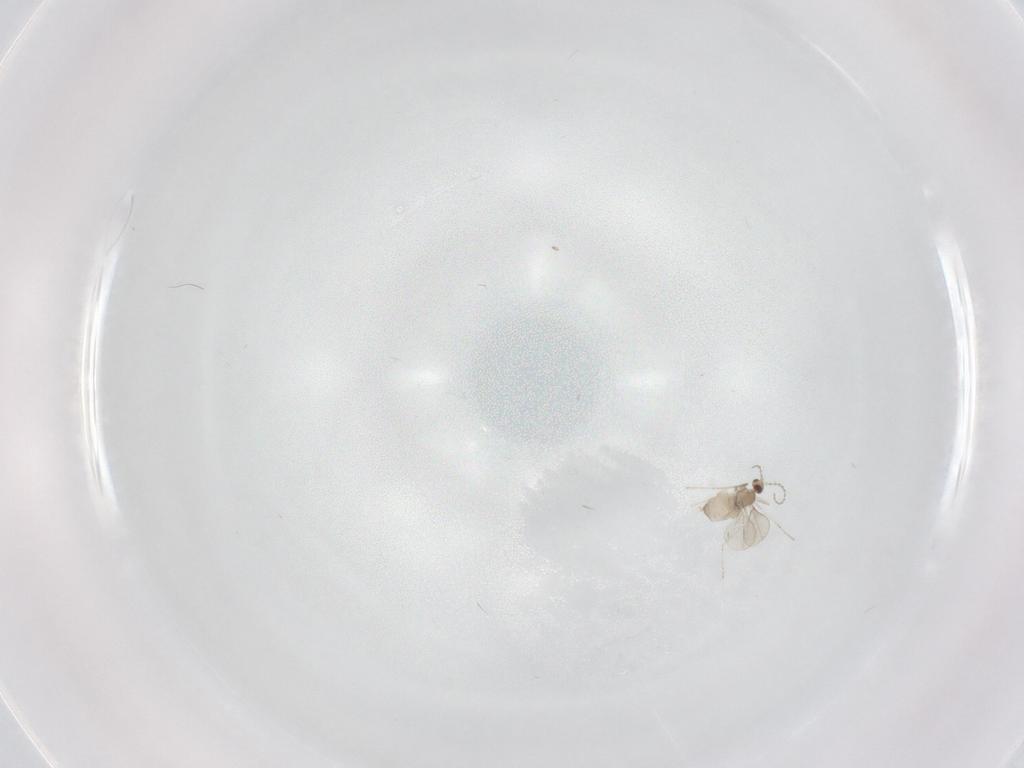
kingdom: Animalia
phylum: Arthropoda
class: Insecta
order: Diptera
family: Cecidomyiidae
